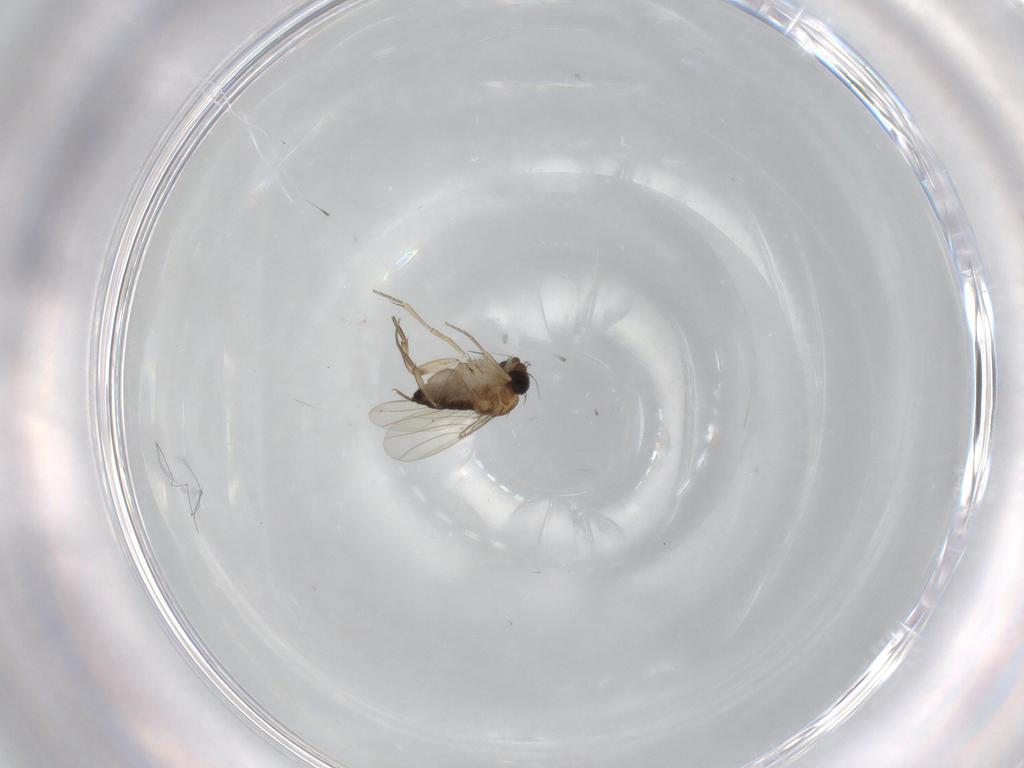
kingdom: Animalia
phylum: Arthropoda
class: Insecta
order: Diptera
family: Phoridae
